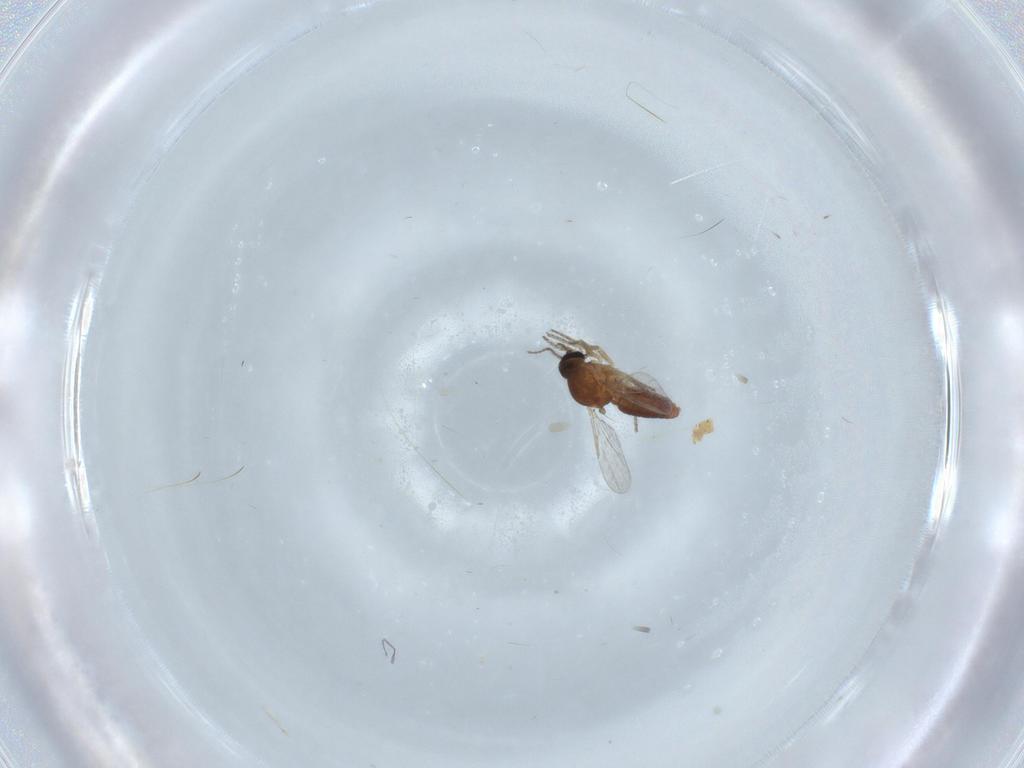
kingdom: Animalia
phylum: Arthropoda
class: Insecta
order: Diptera
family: Ceratopogonidae
